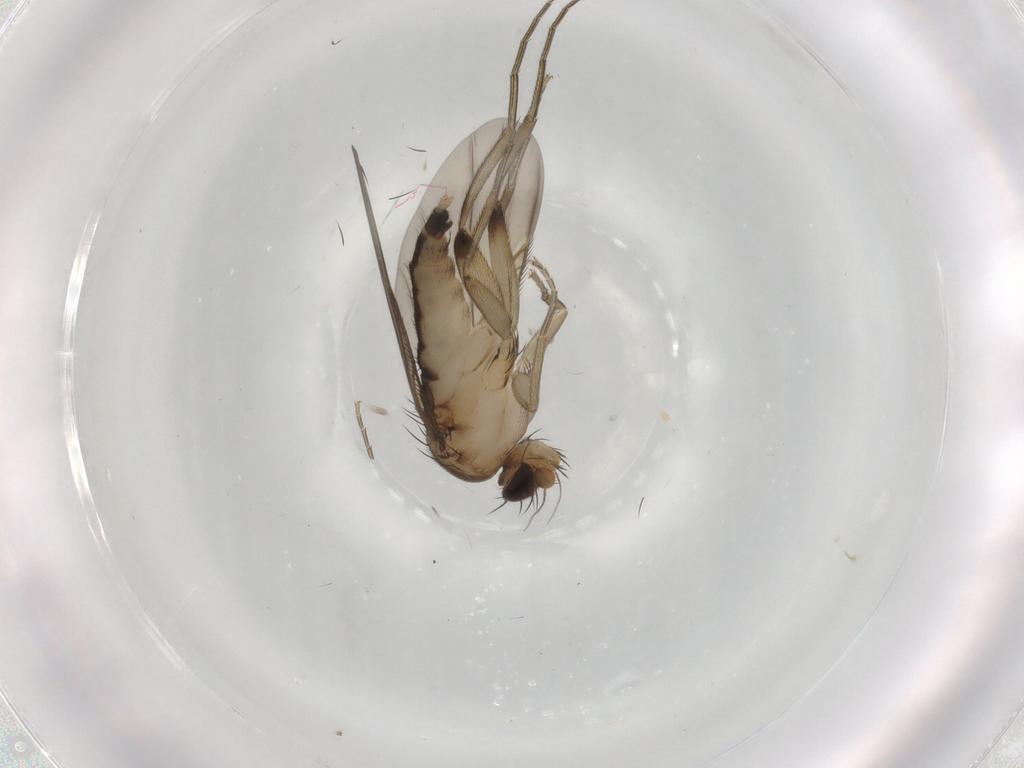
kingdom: Animalia
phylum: Arthropoda
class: Insecta
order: Diptera
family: Phoridae
